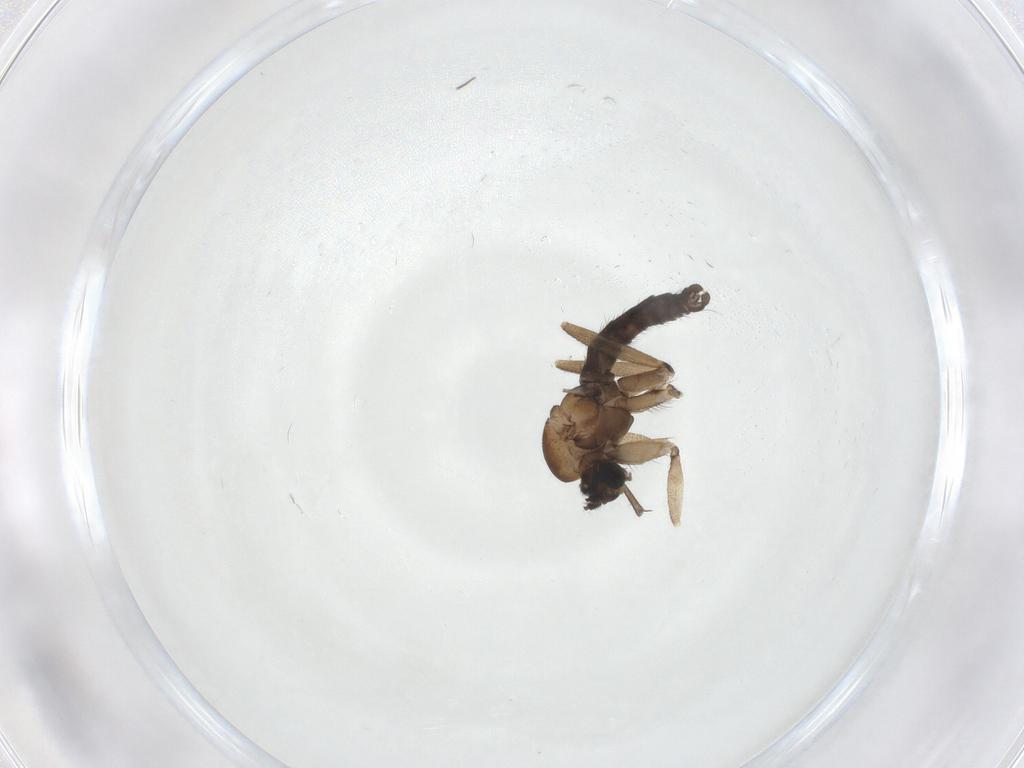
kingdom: Animalia
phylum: Arthropoda
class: Insecta
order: Diptera
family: Sciaridae
